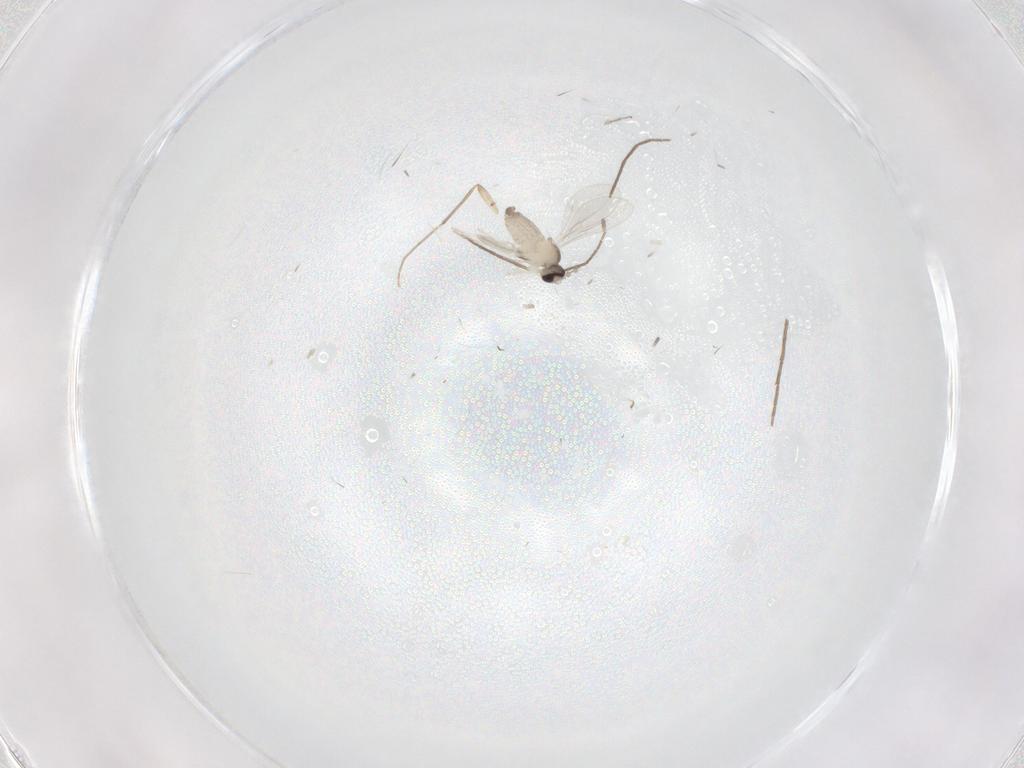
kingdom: Animalia
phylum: Arthropoda
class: Insecta
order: Diptera
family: Cecidomyiidae
